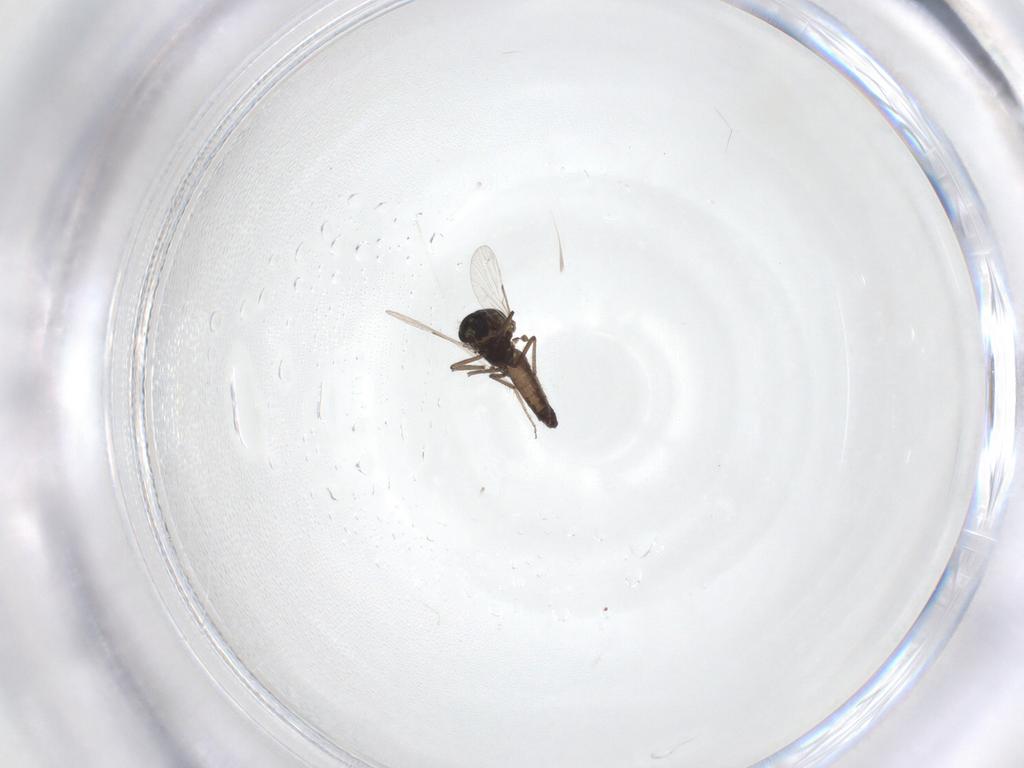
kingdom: Animalia
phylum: Arthropoda
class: Insecta
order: Diptera
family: Ceratopogonidae
